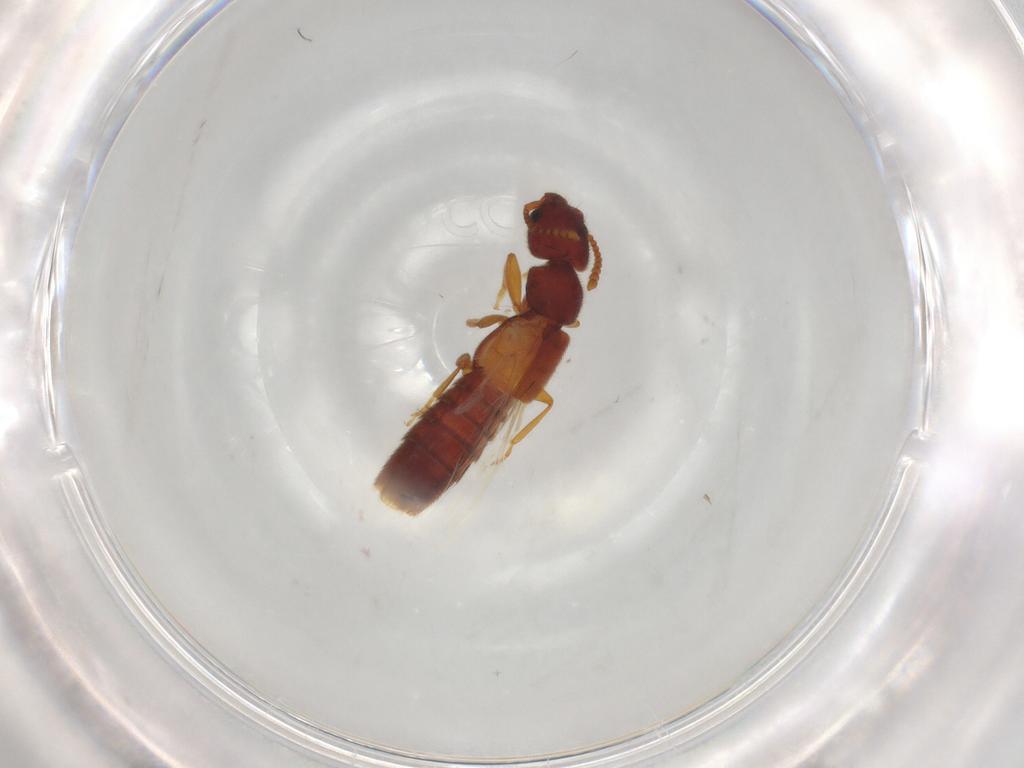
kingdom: Animalia
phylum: Arthropoda
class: Insecta
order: Coleoptera
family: Staphylinidae
